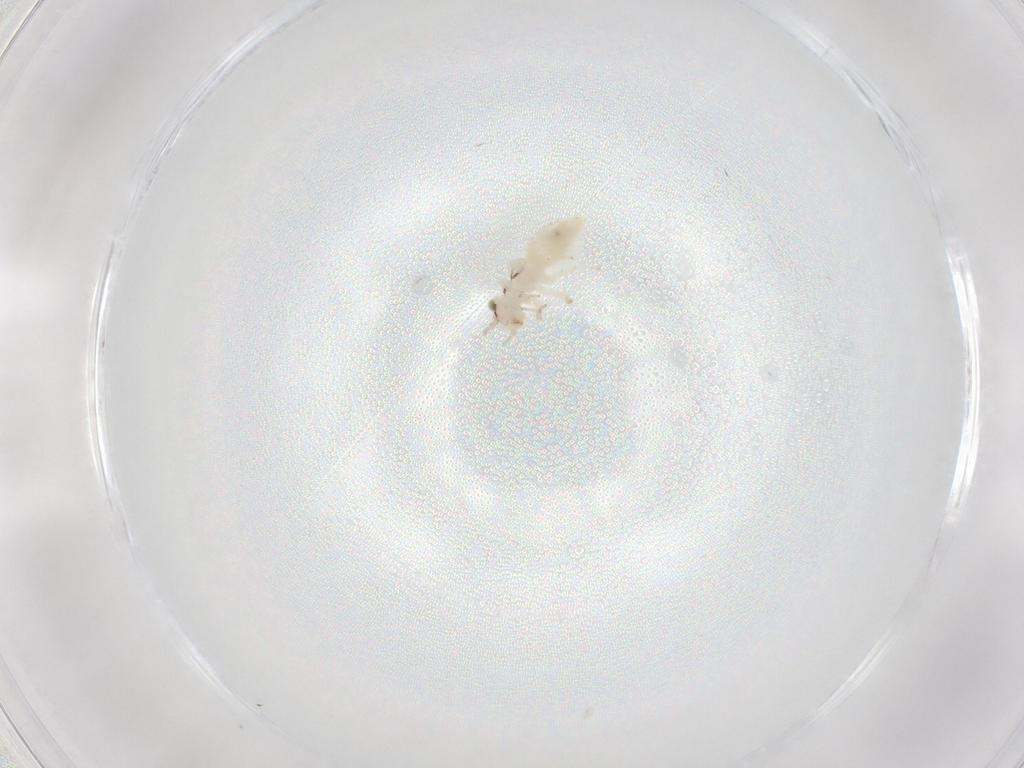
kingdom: Animalia
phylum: Arthropoda
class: Insecta
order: Psocodea
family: Lepidopsocidae
